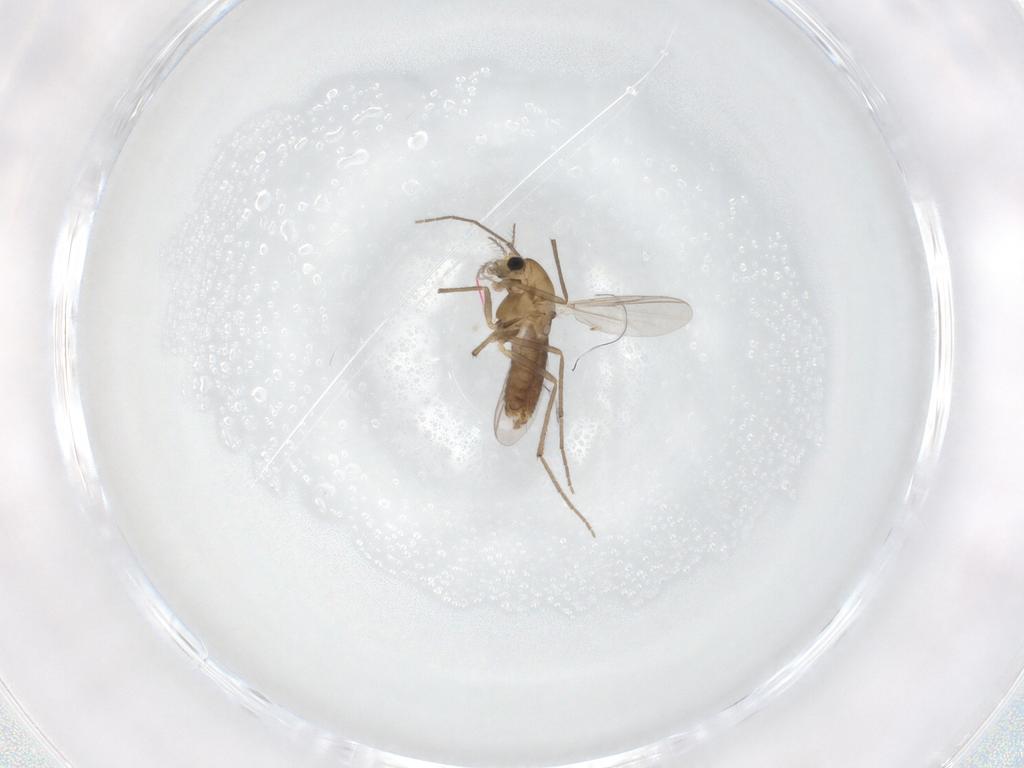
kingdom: Animalia
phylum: Arthropoda
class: Insecta
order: Diptera
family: Chironomidae
